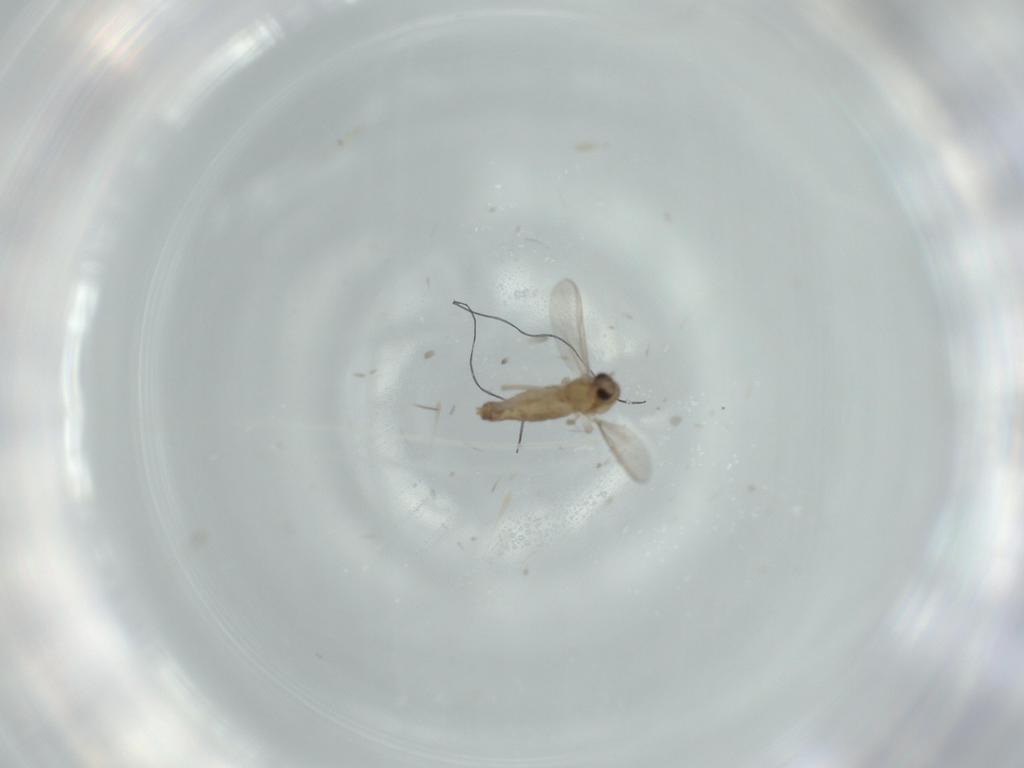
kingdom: Animalia
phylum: Arthropoda
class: Insecta
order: Diptera
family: Chironomidae
